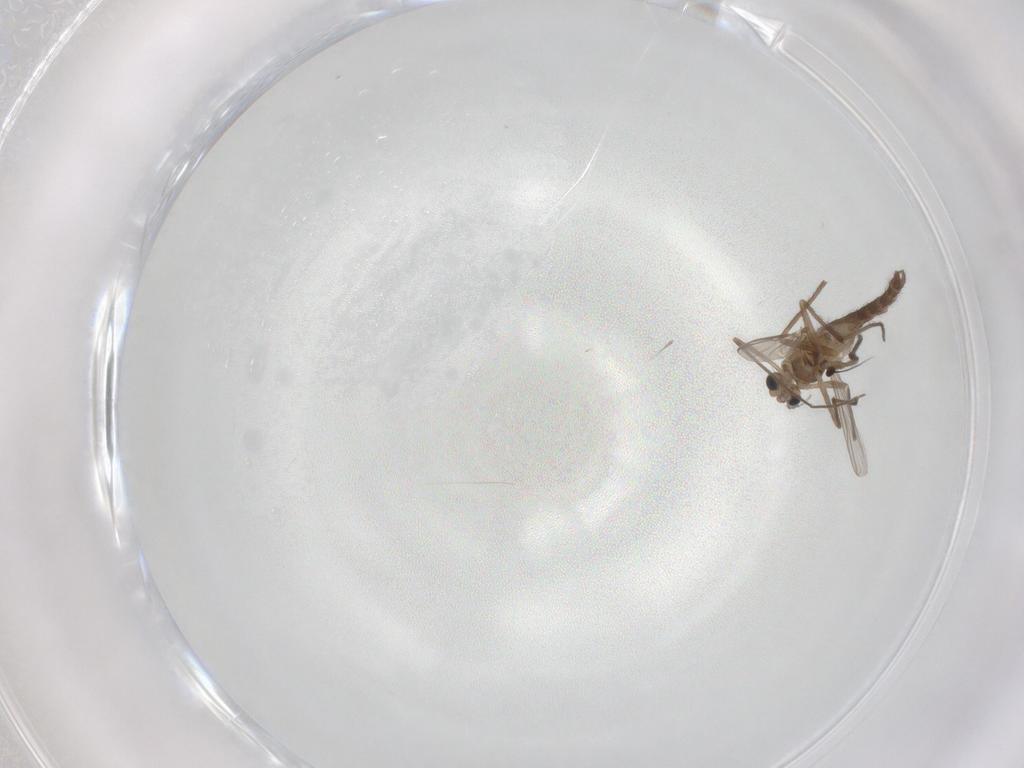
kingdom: Animalia
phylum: Arthropoda
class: Insecta
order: Diptera
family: Chironomidae
